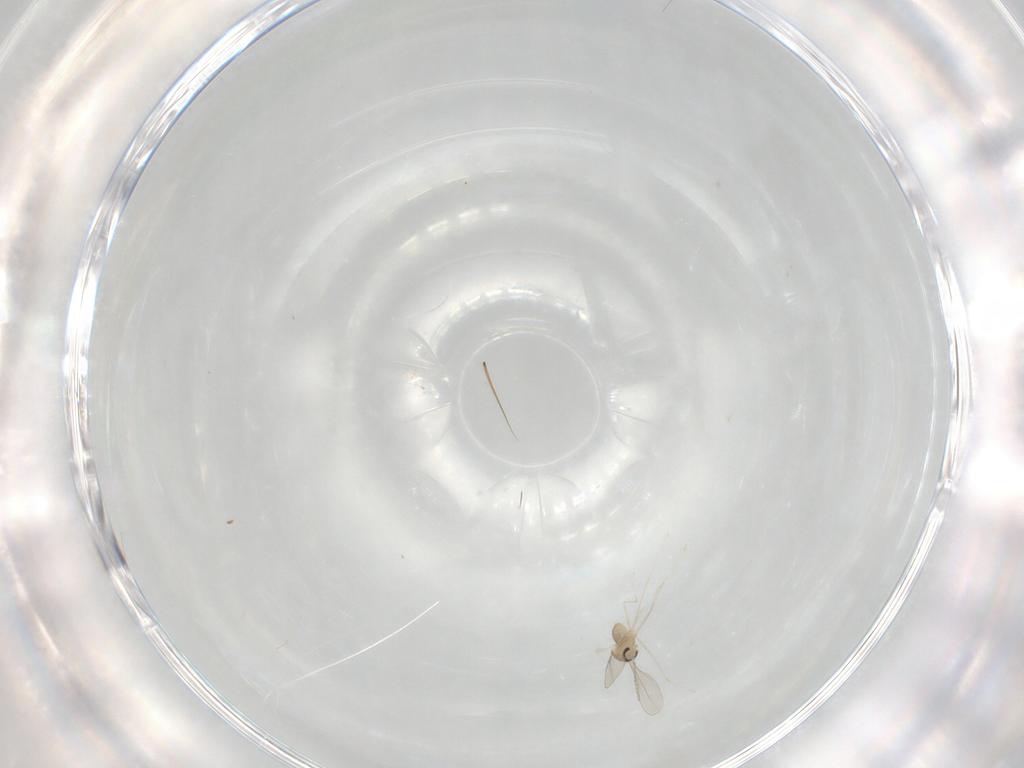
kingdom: Animalia
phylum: Arthropoda
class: Insecta
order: Diptera
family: Cecidomyiidae
